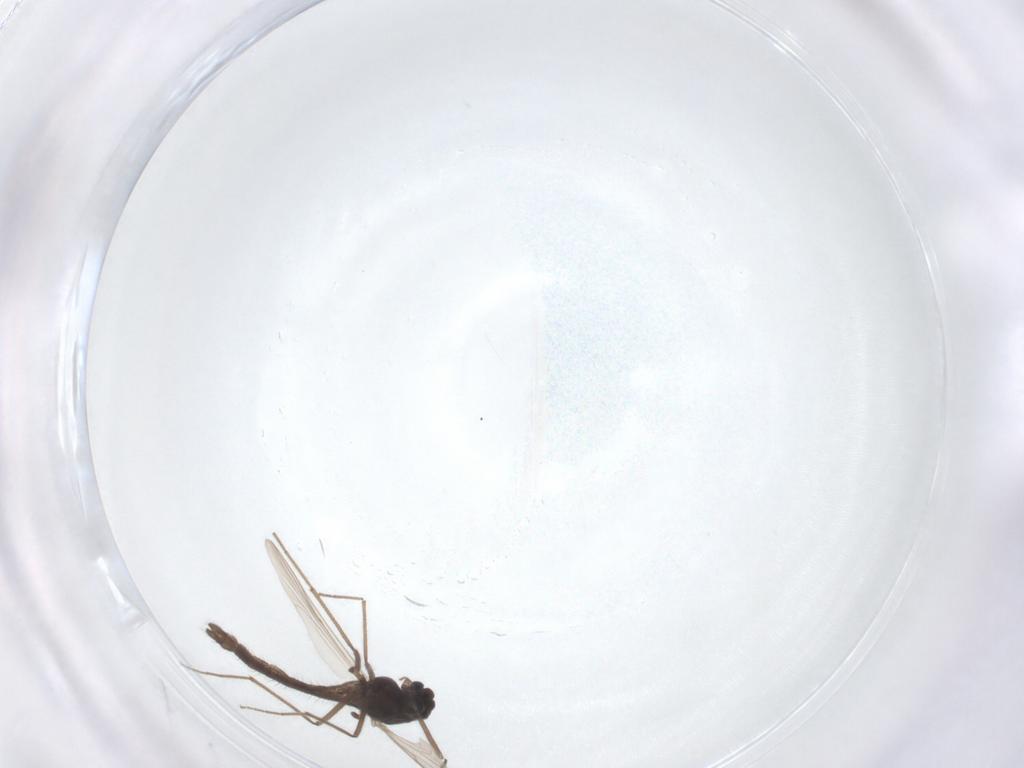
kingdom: Animalia
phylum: Arthropoda
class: Insecta
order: Diptera
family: Chironomidae
